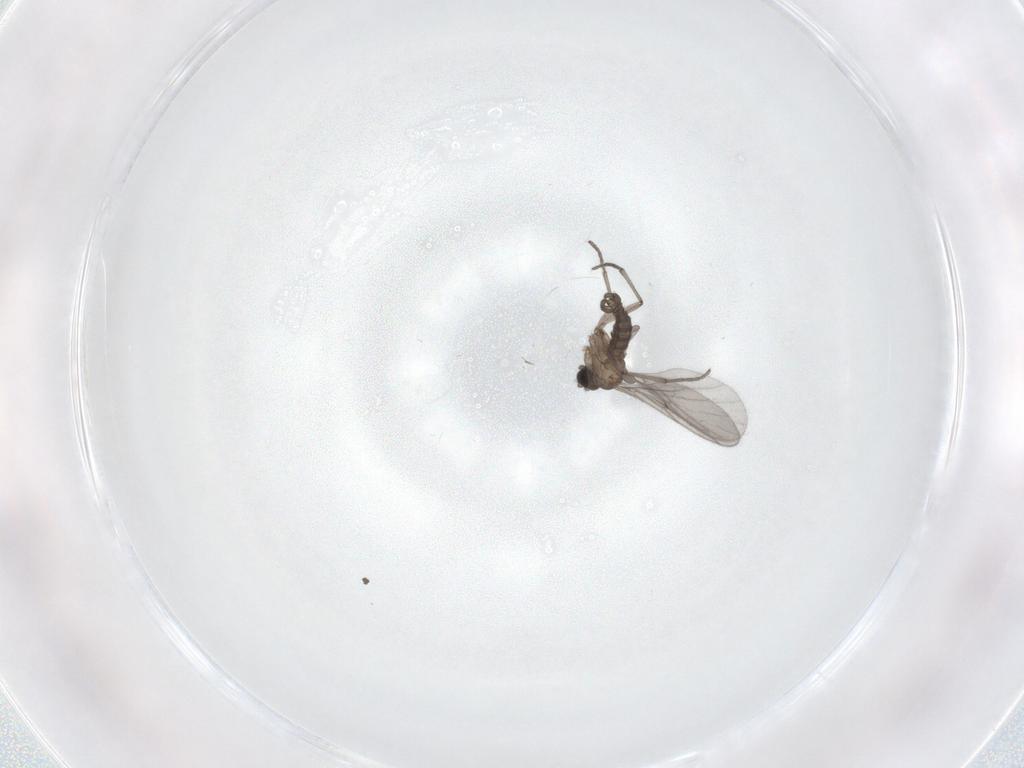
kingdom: Animalia
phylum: Arthropoda
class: Insecta
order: Diptera
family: Sciaridae
